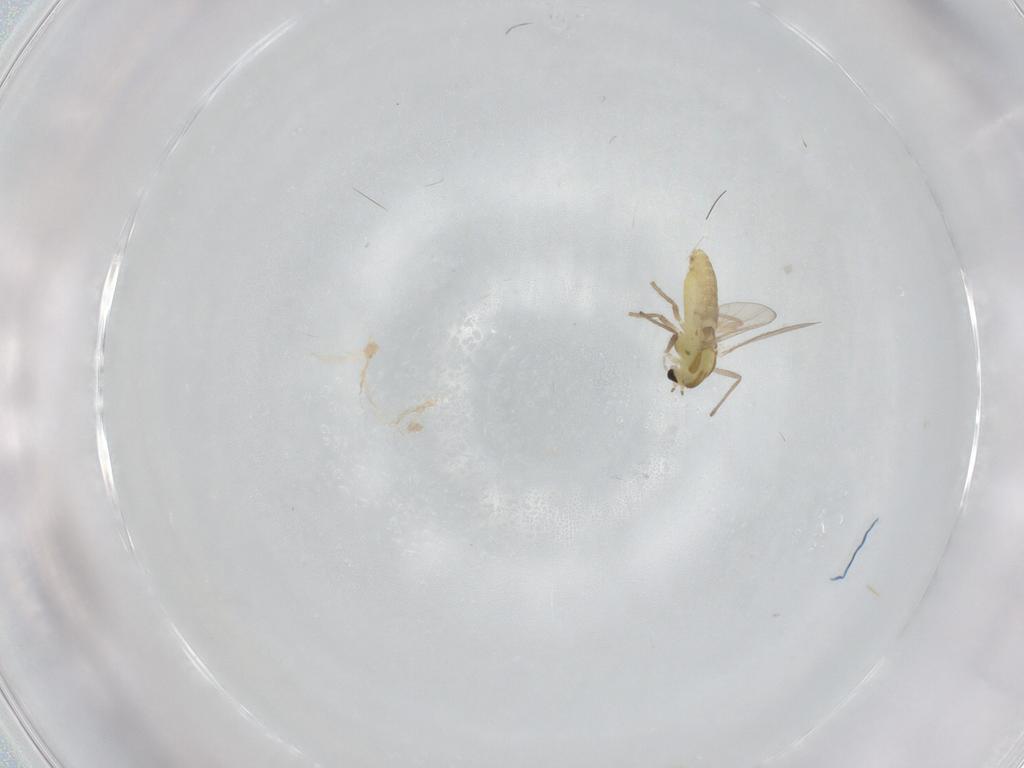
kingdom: Animalia
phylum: Arthropoda
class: Insecta
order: Diptera
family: Chironomidae
